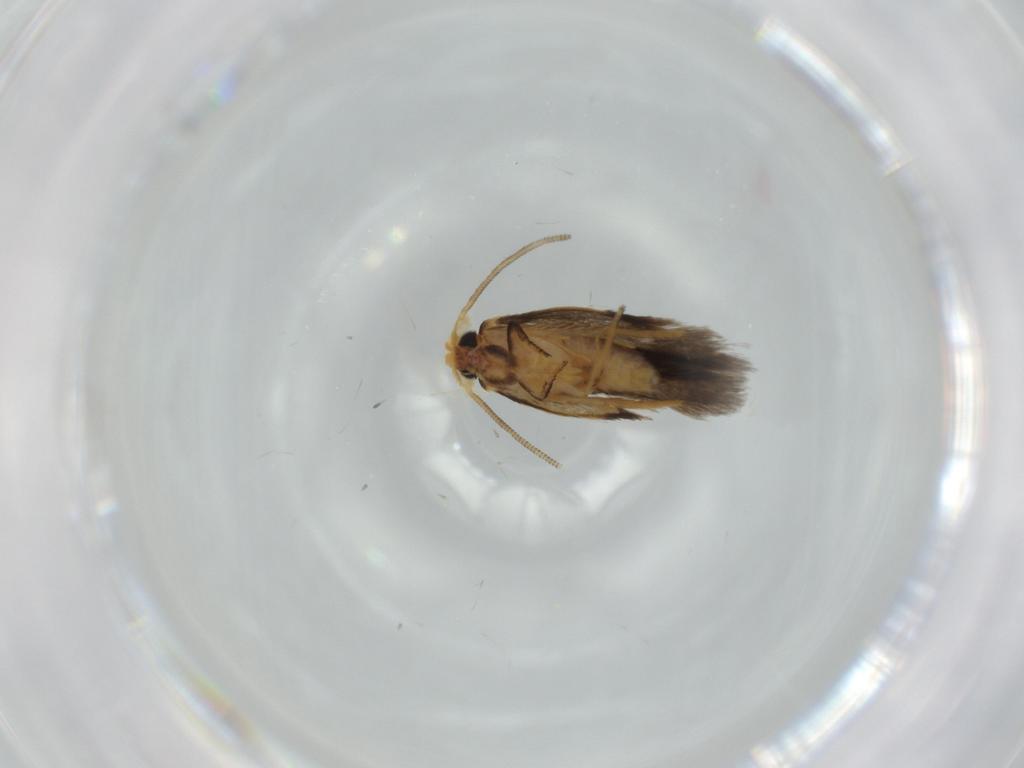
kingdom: Animalia
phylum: Arthropoda
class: Insecta
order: Lepidoptera
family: Nepticulidae
